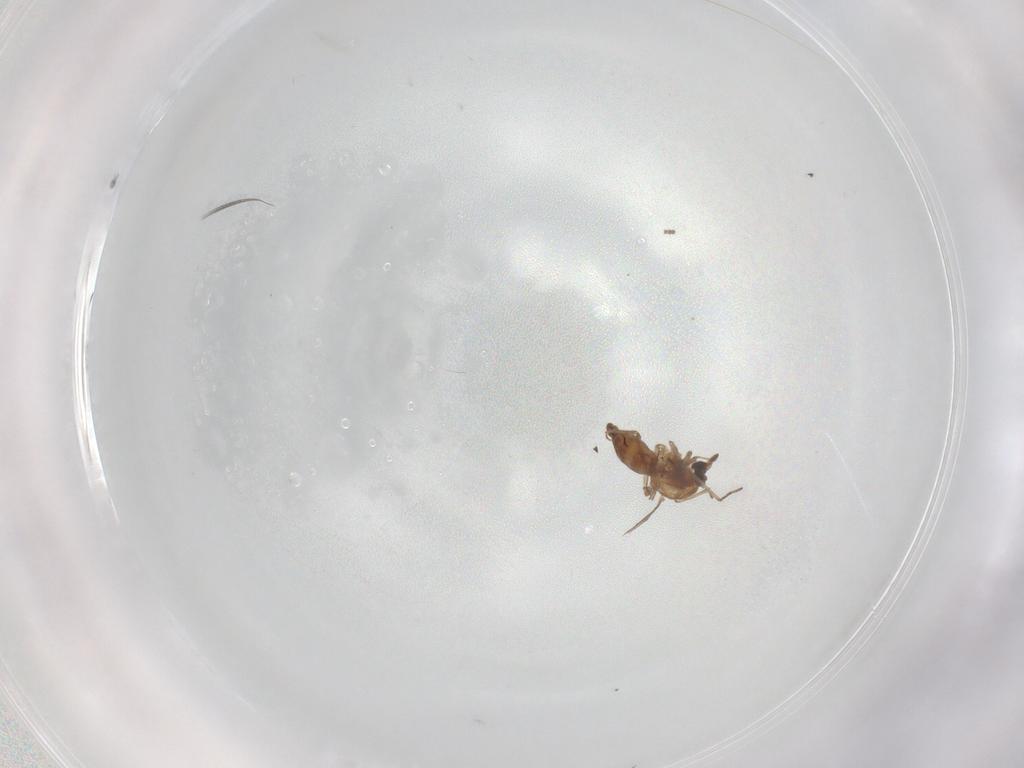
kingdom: Animalia
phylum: Arthropoda
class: Insecta
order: Diptera
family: Sciaridae
